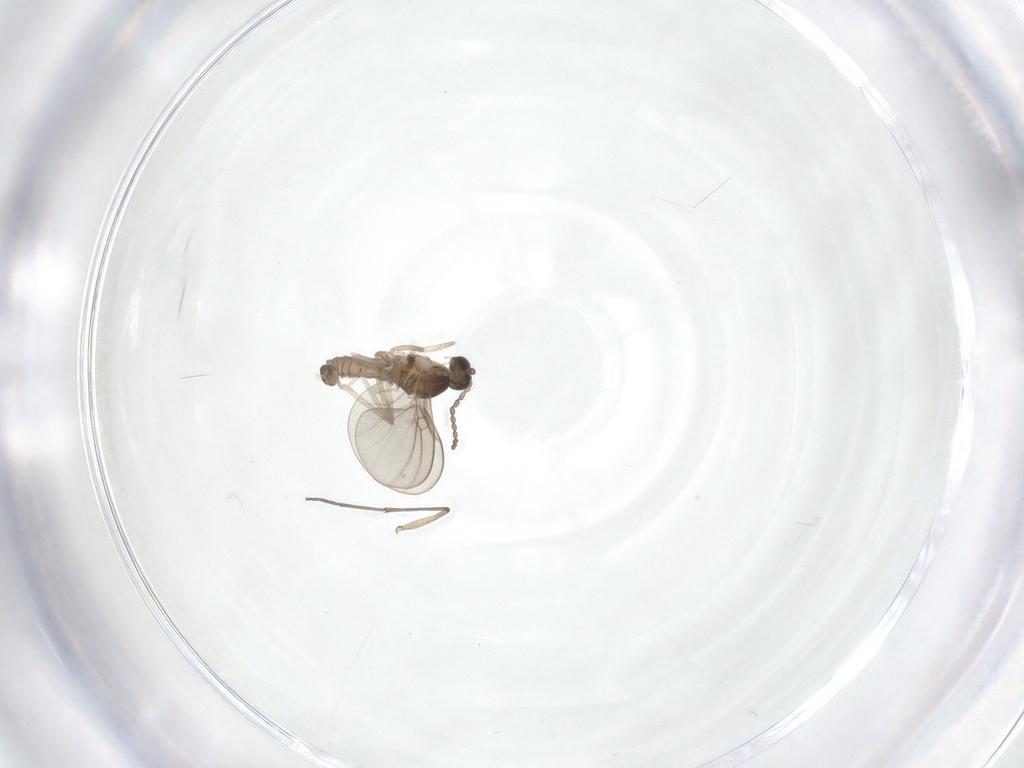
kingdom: Animalia
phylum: Arthropoda
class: Insecta
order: Diptera
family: Cecidomyiidae
